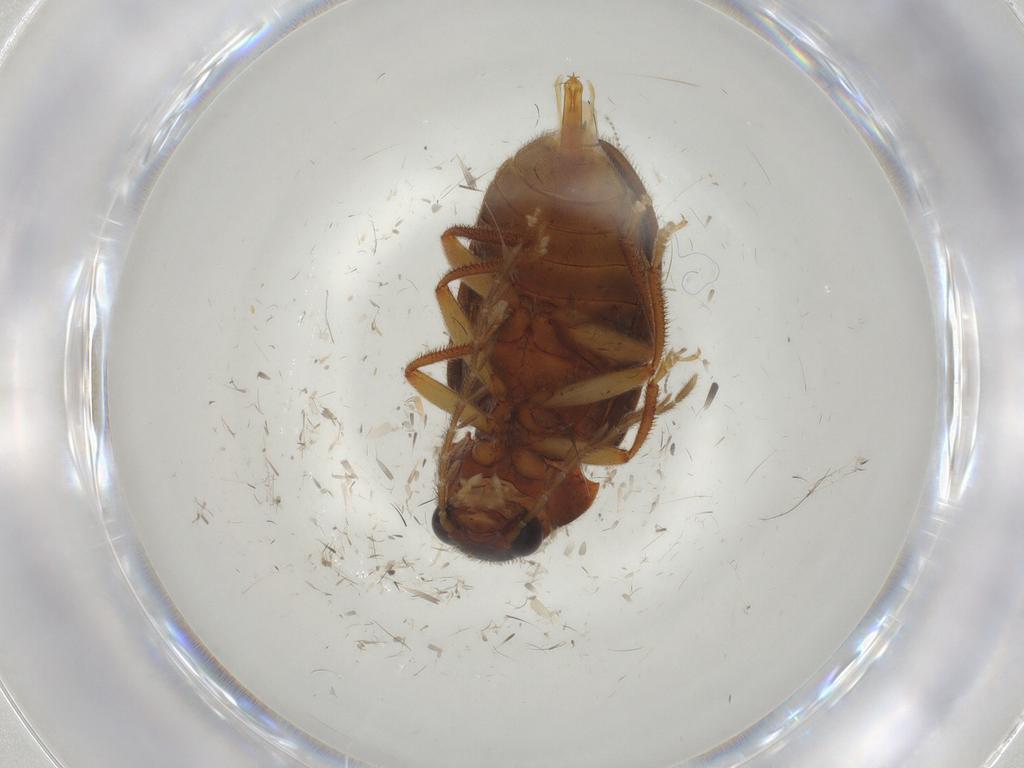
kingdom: Animalia
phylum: Arthropoda
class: Insecta
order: Coleoptera
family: Ptilodactylidae
